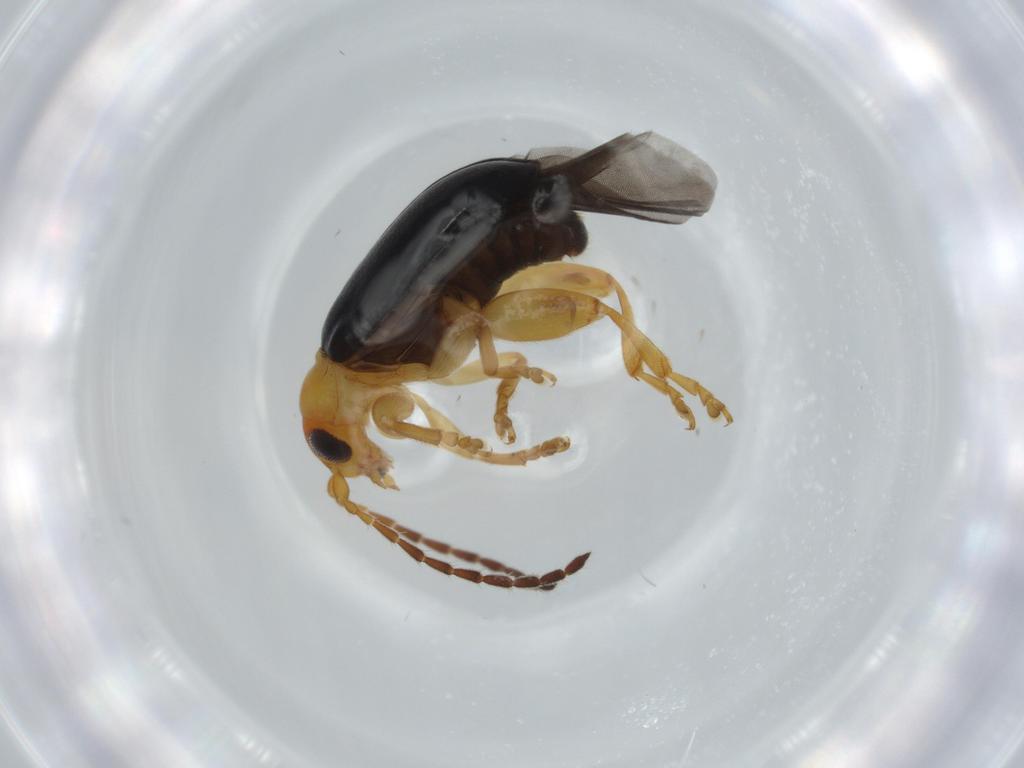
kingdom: Animalia
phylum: Arthropoda
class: Insecta
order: Coleoptera
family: Chrysomelidae
